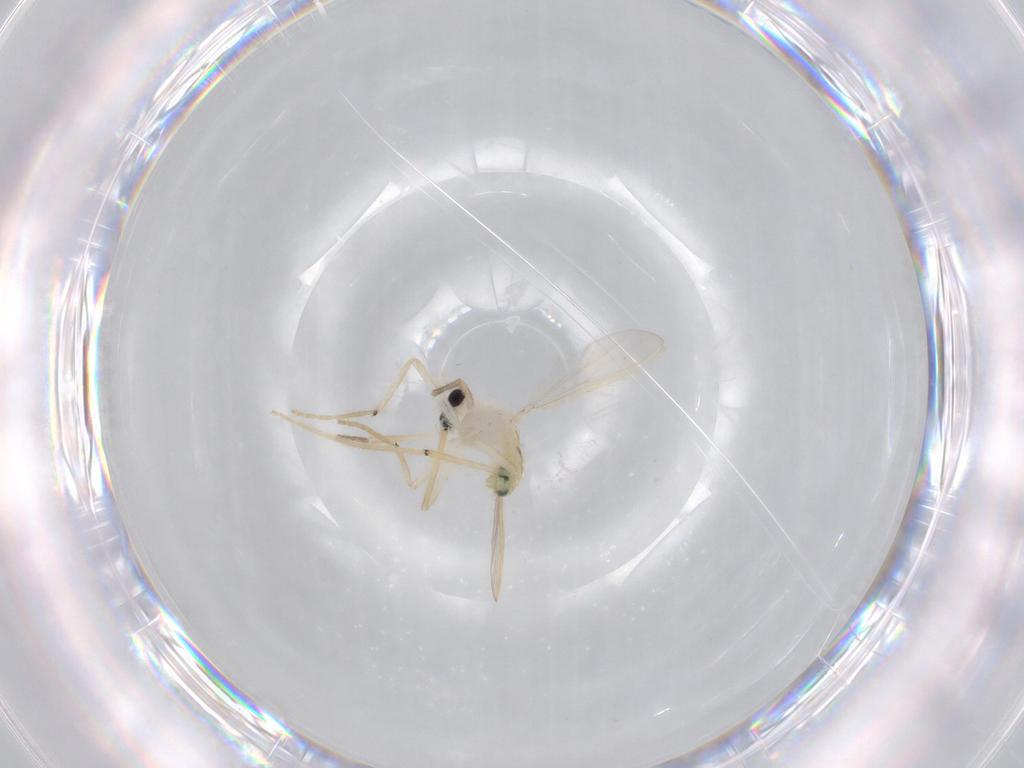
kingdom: Animalia
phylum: Arthropoda
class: Insecta
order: Diptera
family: Chironomidae
